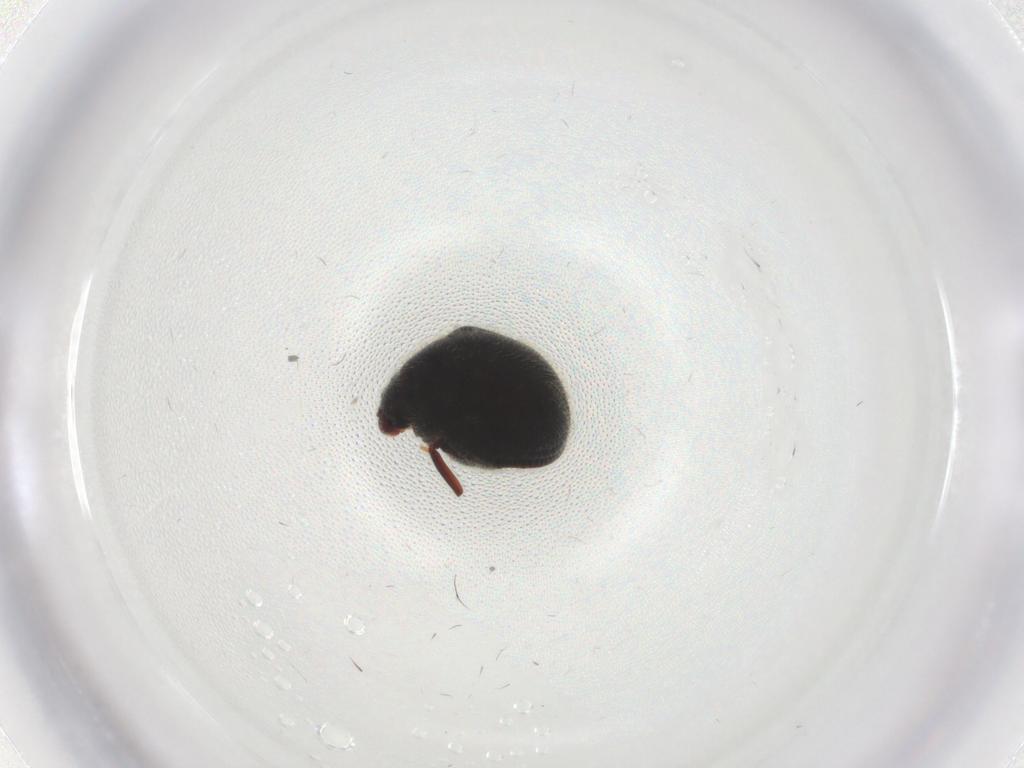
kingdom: Animalia
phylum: Arthropoda
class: Insecta
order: Coleoptera
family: Ptinidae
